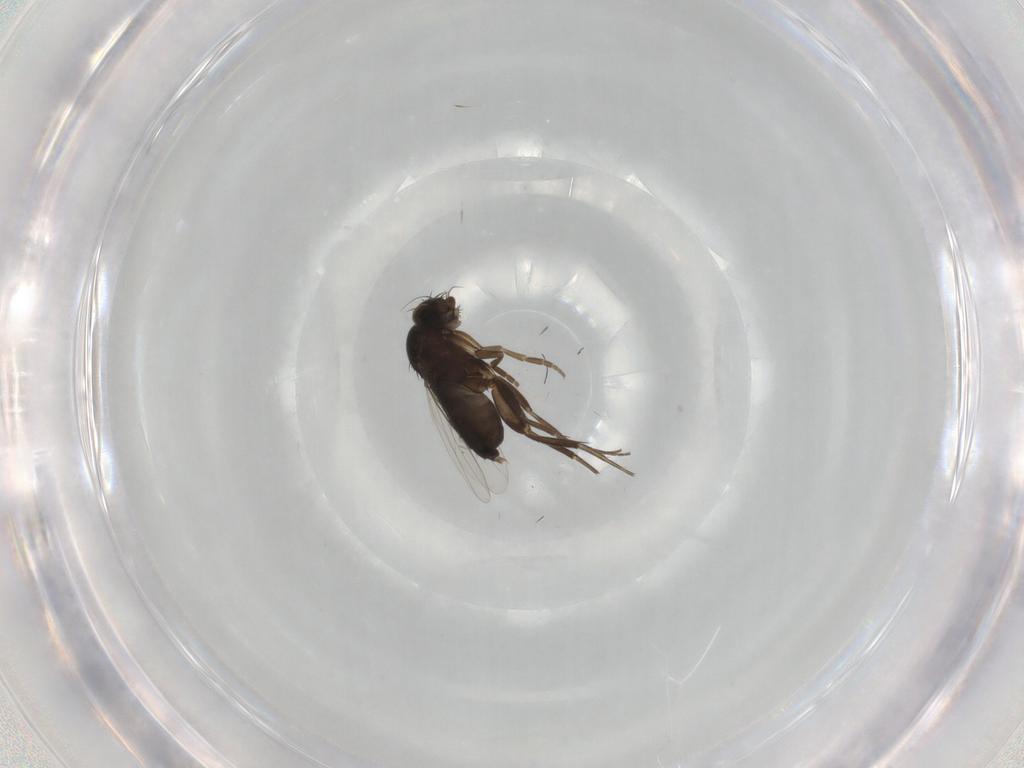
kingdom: Animalia
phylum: Arthropoda
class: Insecta
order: Diptera
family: Phoridae
